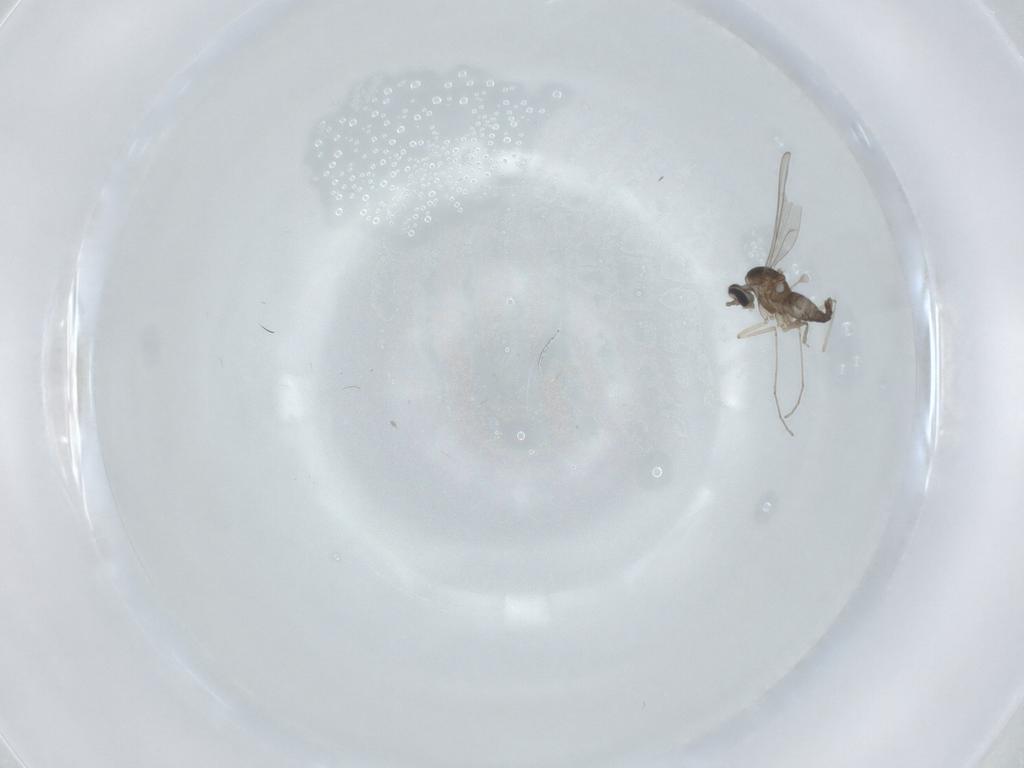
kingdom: Animalia
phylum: Arthropoda
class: Insecta
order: Diptera
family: Cecidomyiidae
